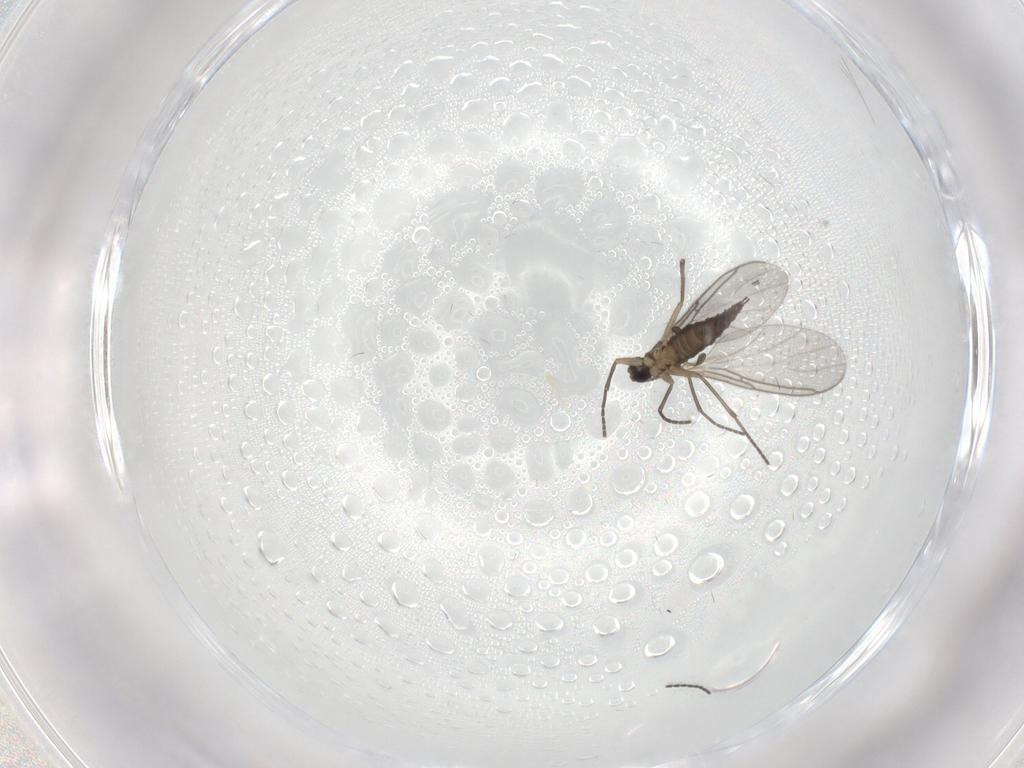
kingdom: Animalia
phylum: Arthropoda
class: Insecta
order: Diptera
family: Sciaridae
